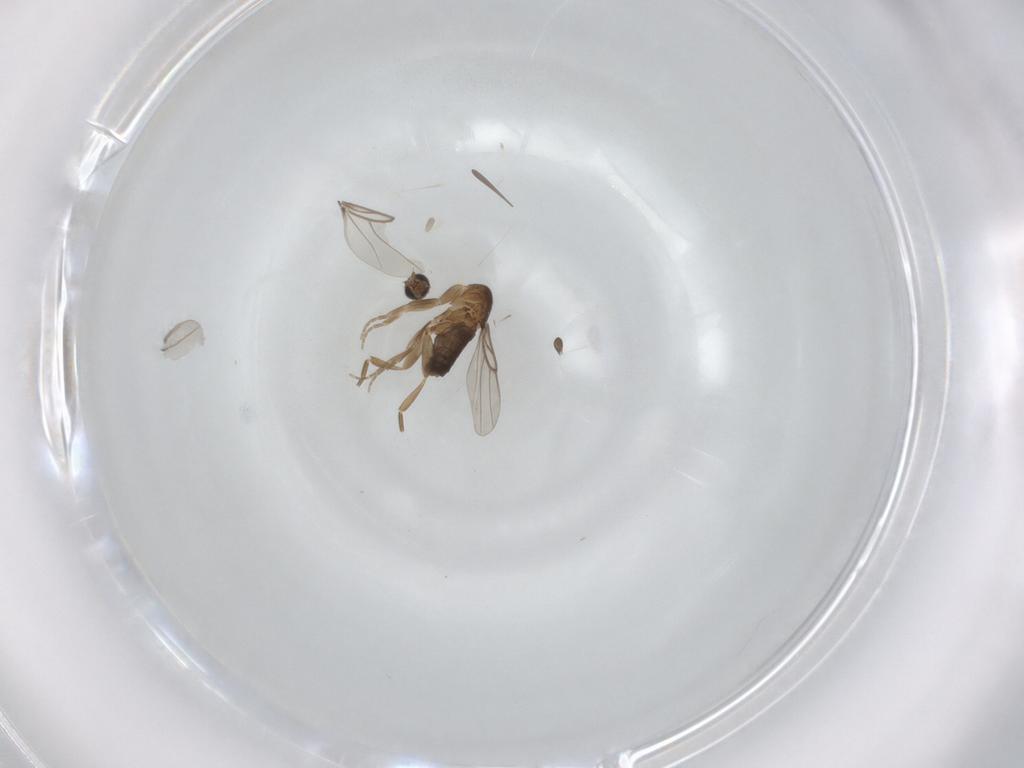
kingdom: Animalia
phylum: Arthropoda
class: Insecta
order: Diptera
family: Phoridae
